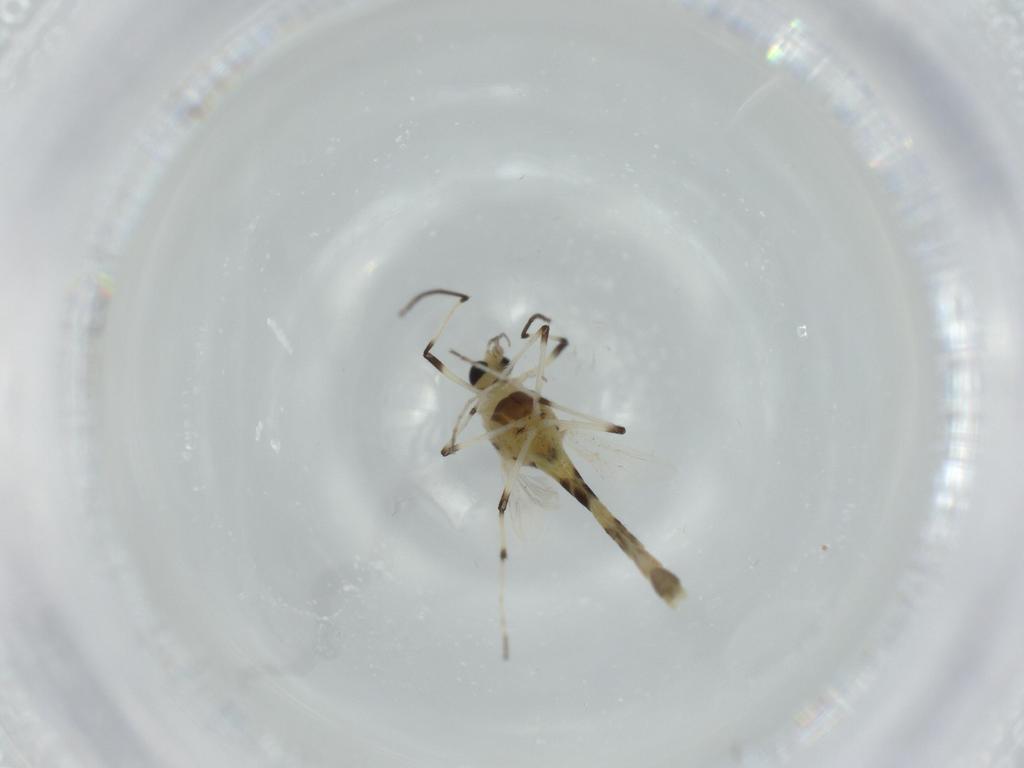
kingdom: Animalia
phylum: Arthropoda
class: Insecta
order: Diptera
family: Chironomidae
